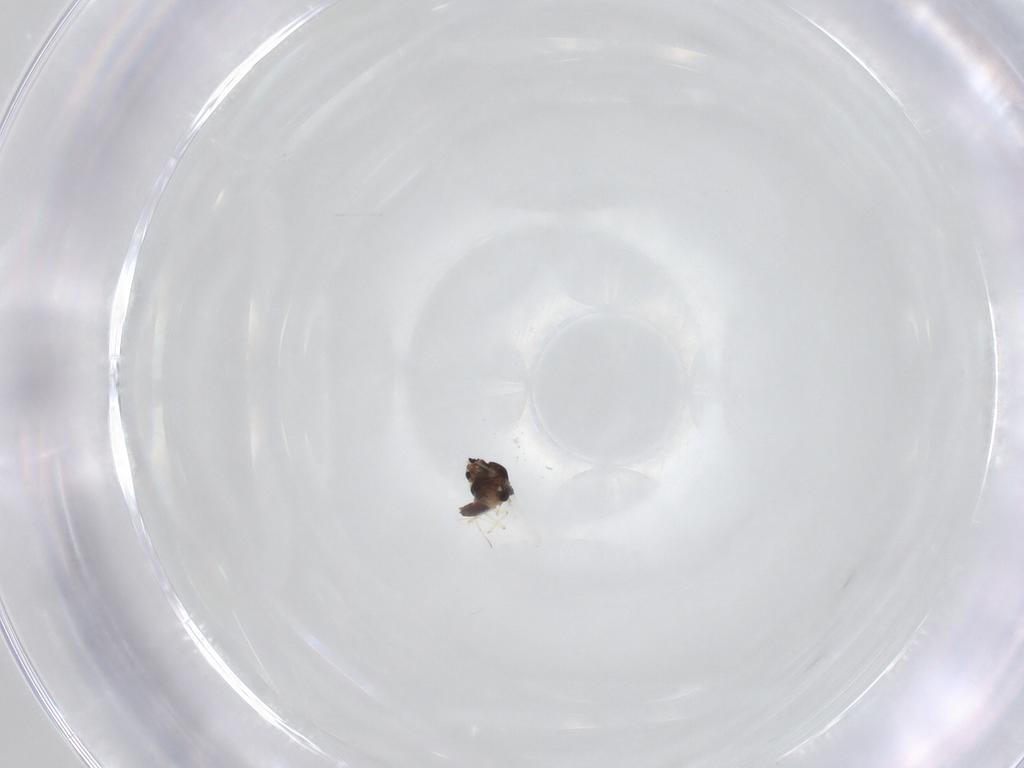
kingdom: Animalia
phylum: Arthropoda
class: Insecta
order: Diptera
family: Chironomidae
